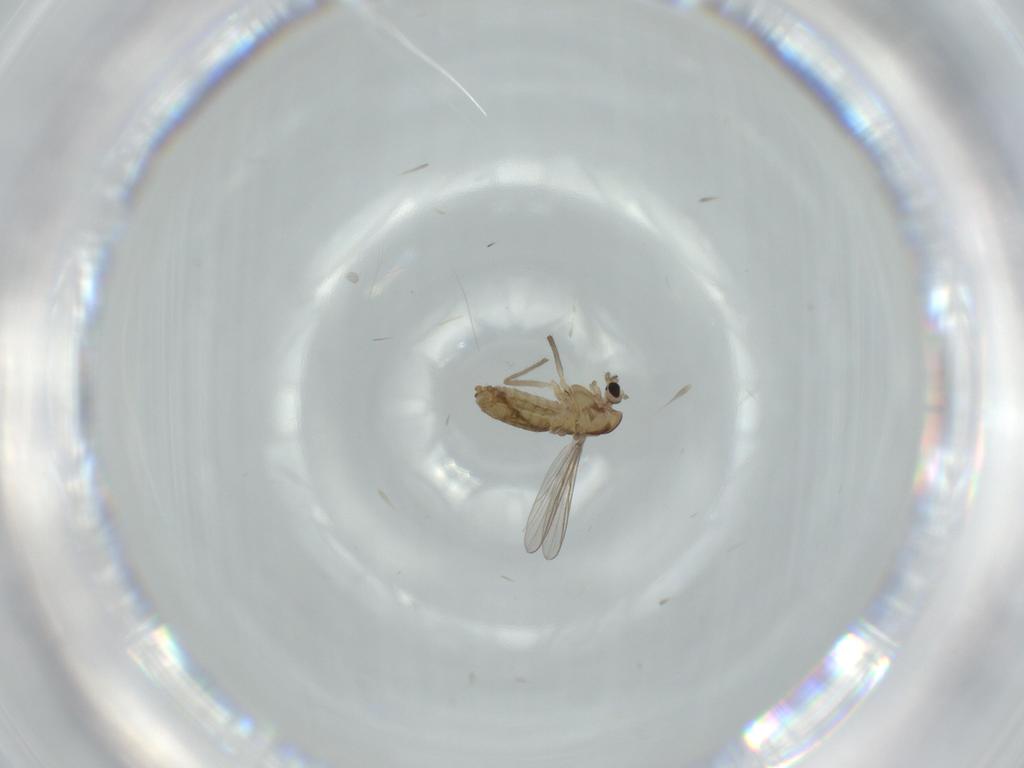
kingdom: Animalia
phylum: Arthropoda
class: Insecta
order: Diptera
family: Chironomidae
